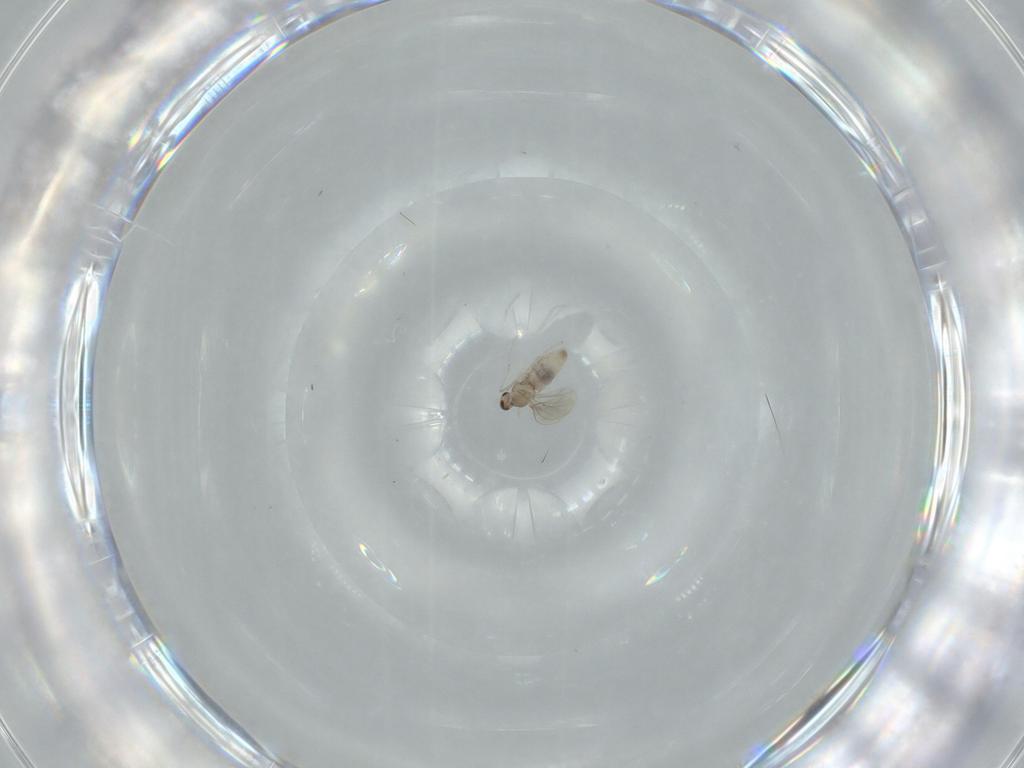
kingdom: Animalia
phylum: Arthropoda
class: Insecta
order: Diptera
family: Cecidomyiidae
